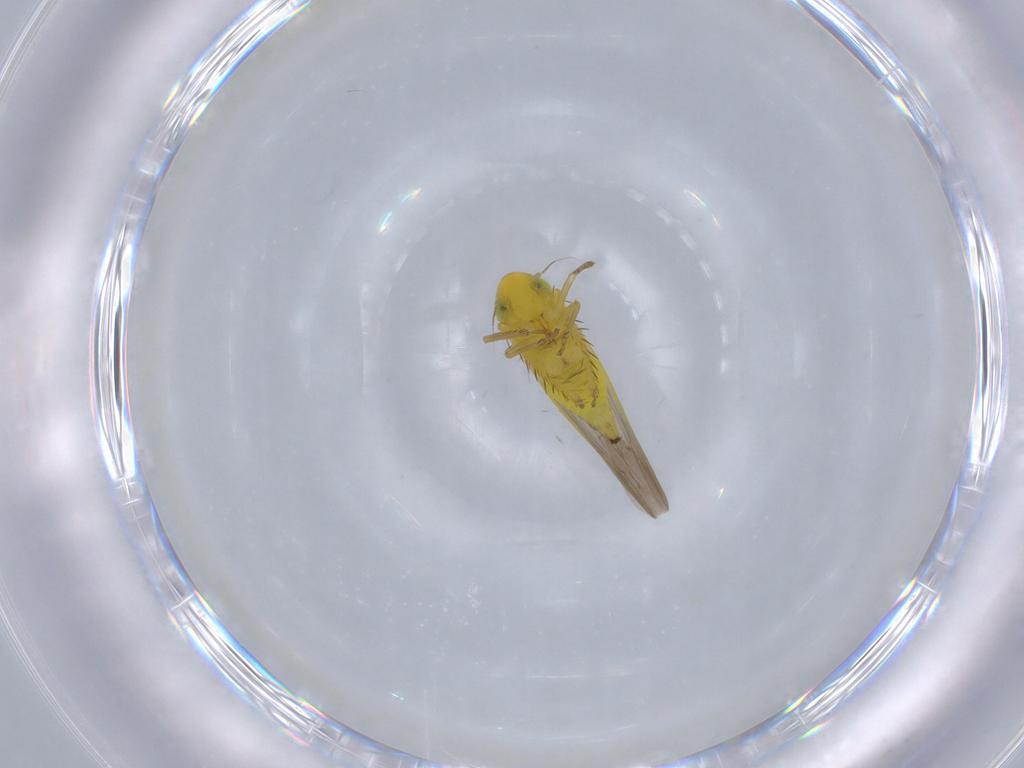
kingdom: Animalia
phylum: Arthropoda
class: Insecta
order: Hemiptera
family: Cicadellidae
